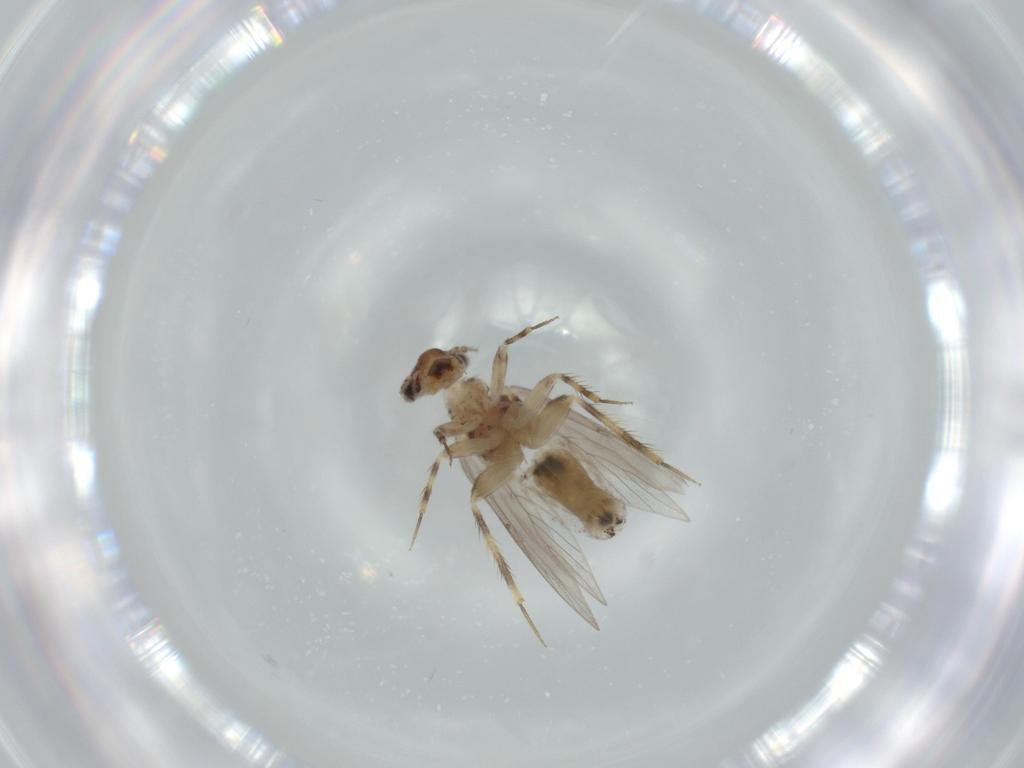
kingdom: Animalia
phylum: Arthropoda
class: Insecta
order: Psocodea
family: Lepidopsocidae
